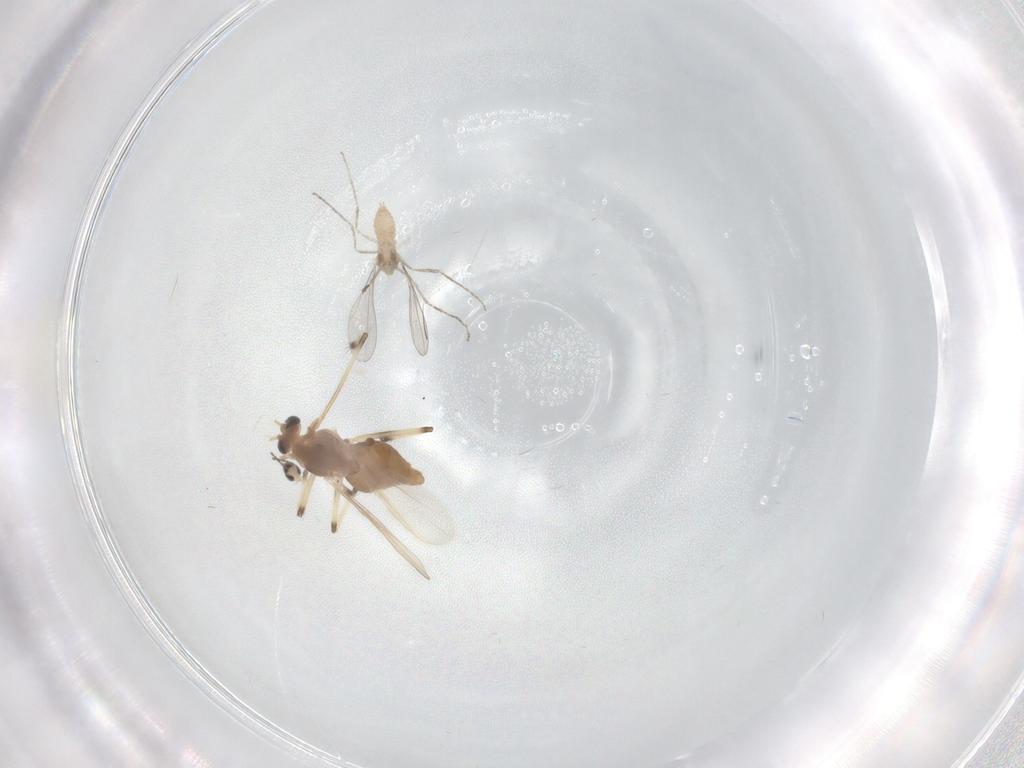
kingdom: Animalia
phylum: Arthropoda
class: Insecta
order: Diptera
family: Chironomidae
